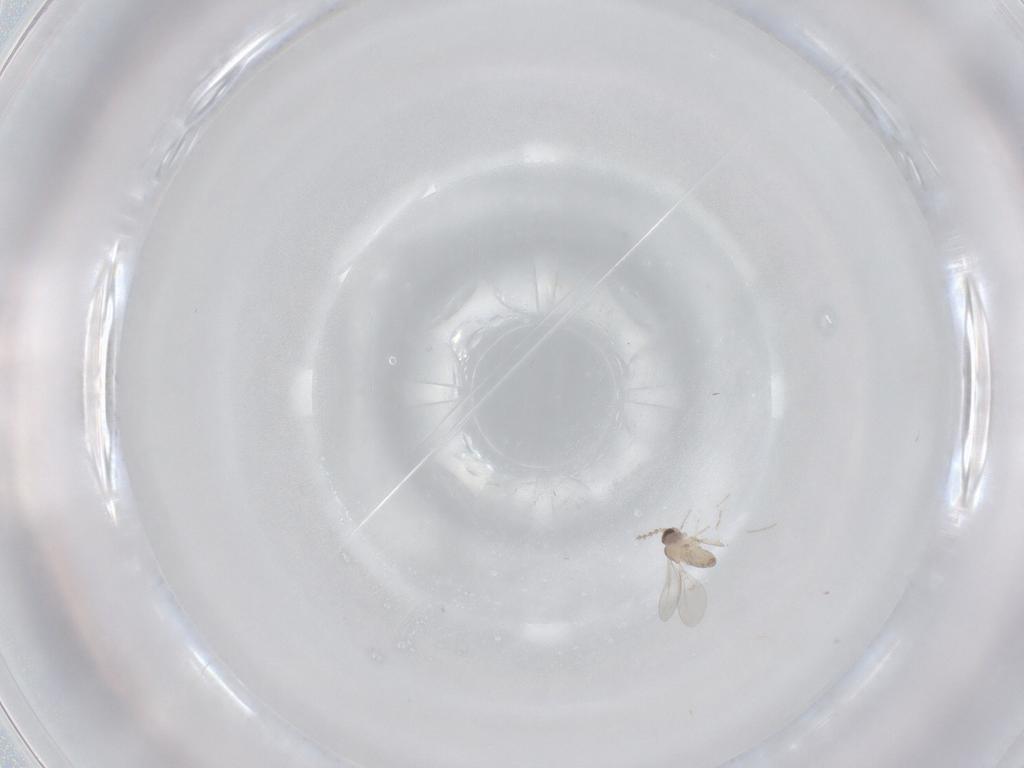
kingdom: Animalia
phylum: Arthropoda
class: Insecta
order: Diptera
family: Cecidomyiidae
